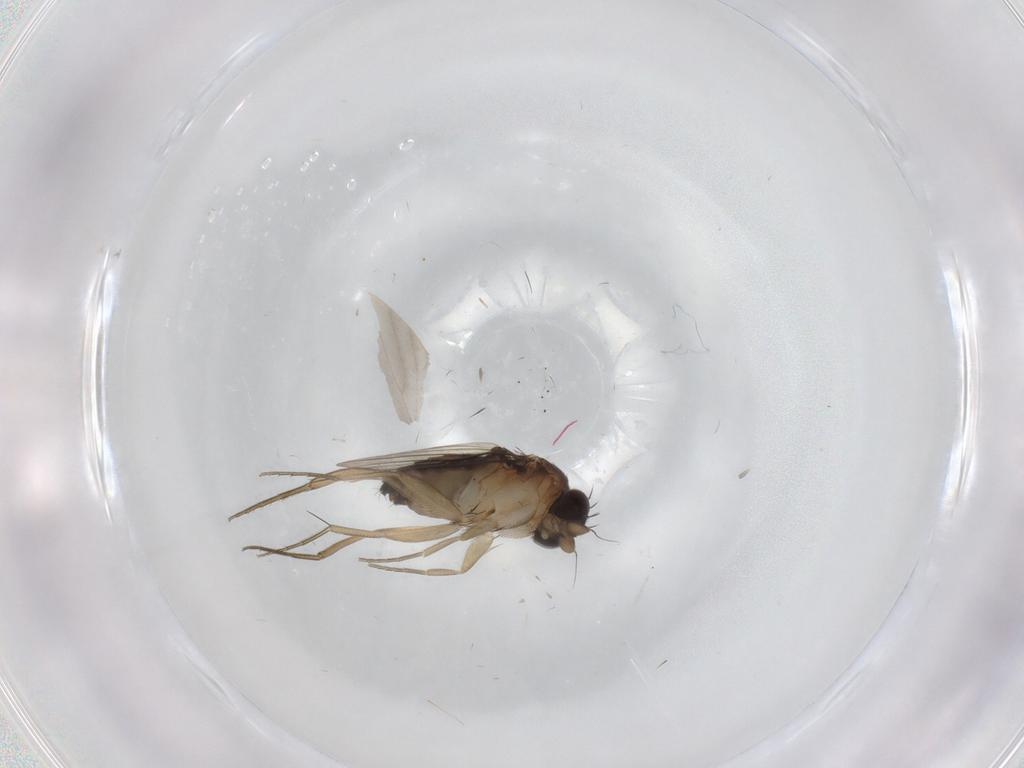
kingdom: Animalia
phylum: Arthropoda
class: Insecta
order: Diptera
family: Phoridae
